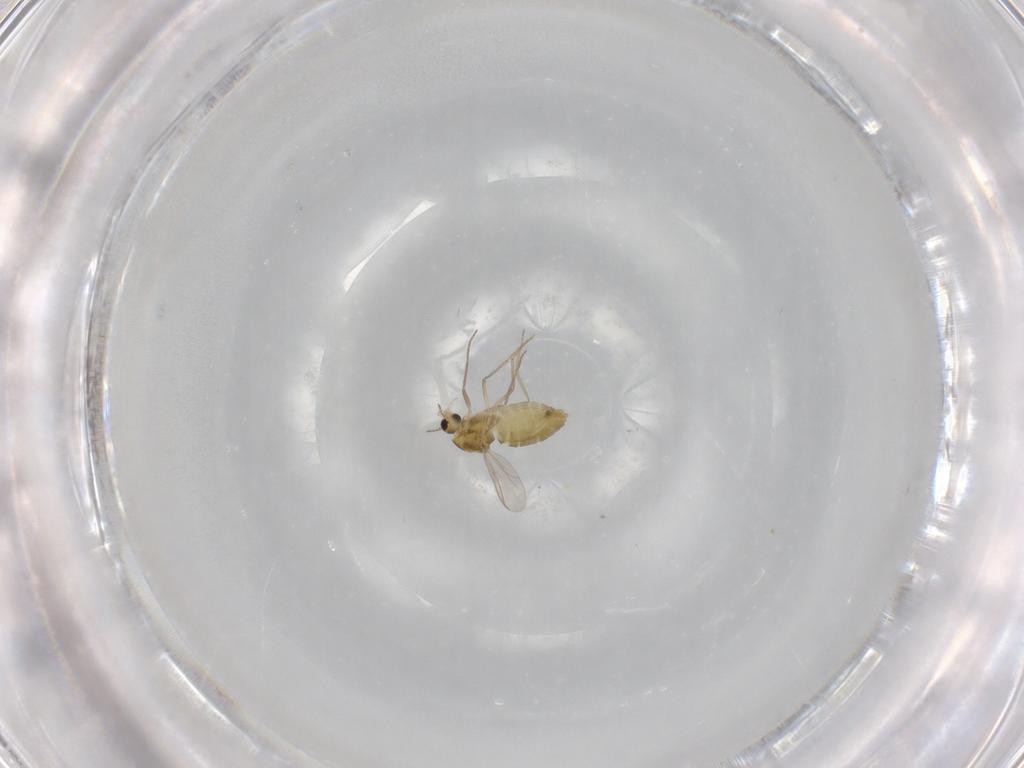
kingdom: Animalia
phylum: Arthropoda
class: Insecta
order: Diptera
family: Chironomidae
